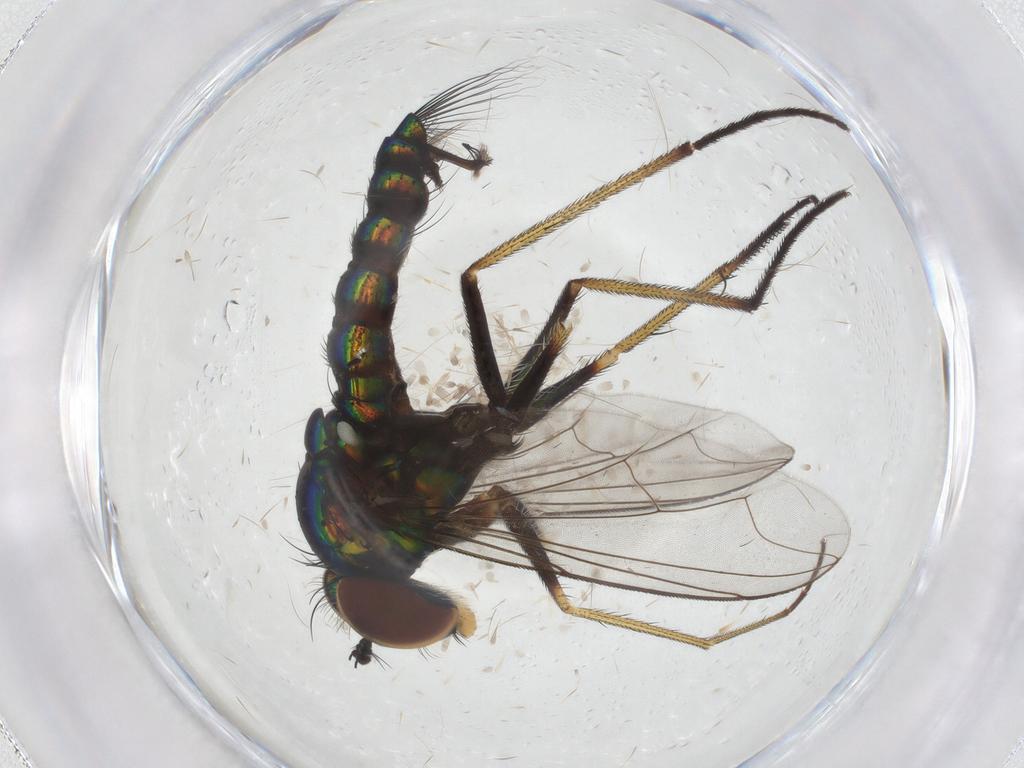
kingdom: Animalia
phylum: Arthropoda
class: Insecta
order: Diptera
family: Dolichopodidae
